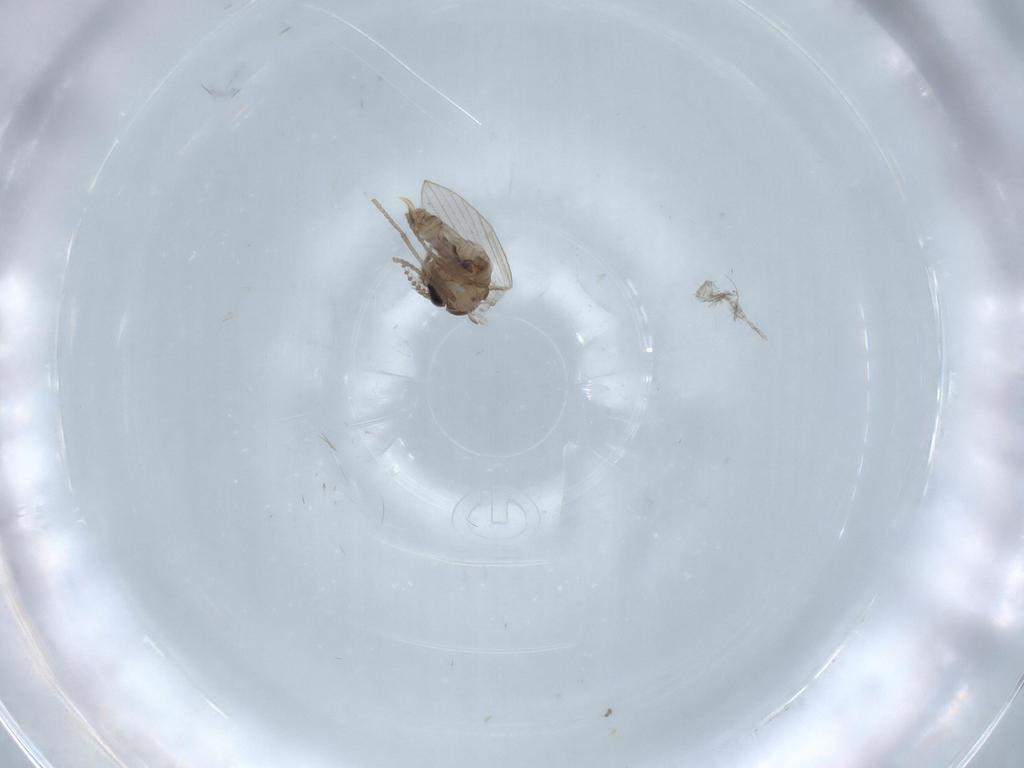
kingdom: Animalia
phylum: Arthropoda
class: Insecta
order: Diptera
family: Psychodidae
